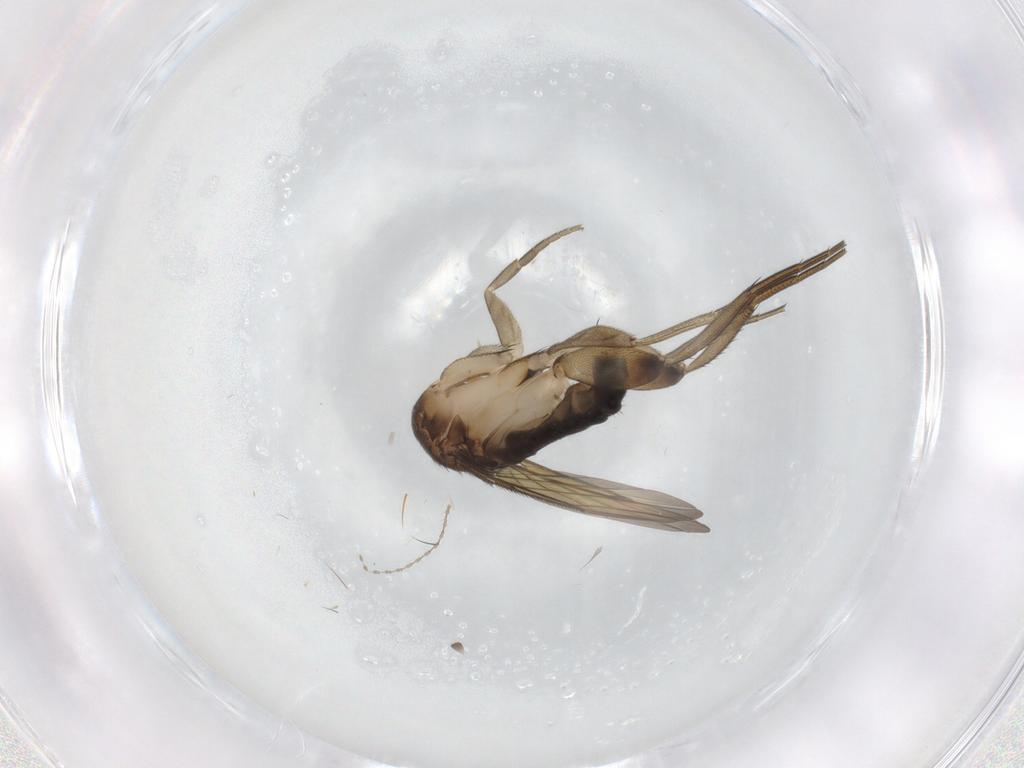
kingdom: Animalia
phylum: Arthropoda
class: Insecta
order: Diptera
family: Phoridae
